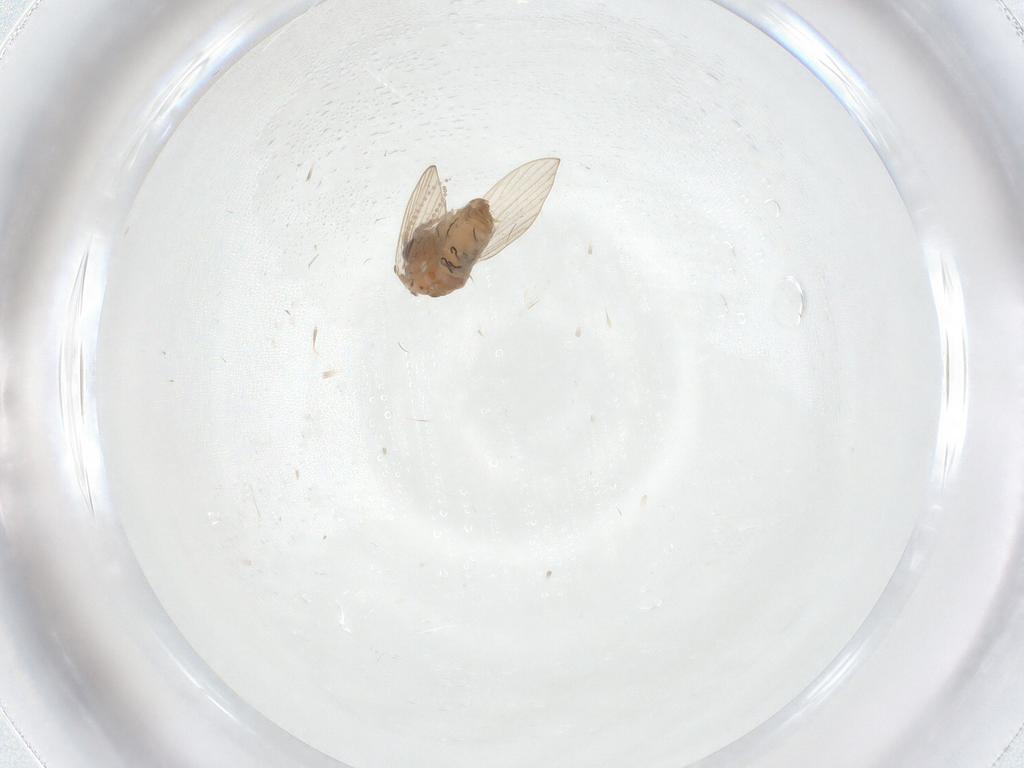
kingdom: Animalia
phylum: Arthropoda
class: Insecta
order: Diptera
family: Psychodidae
